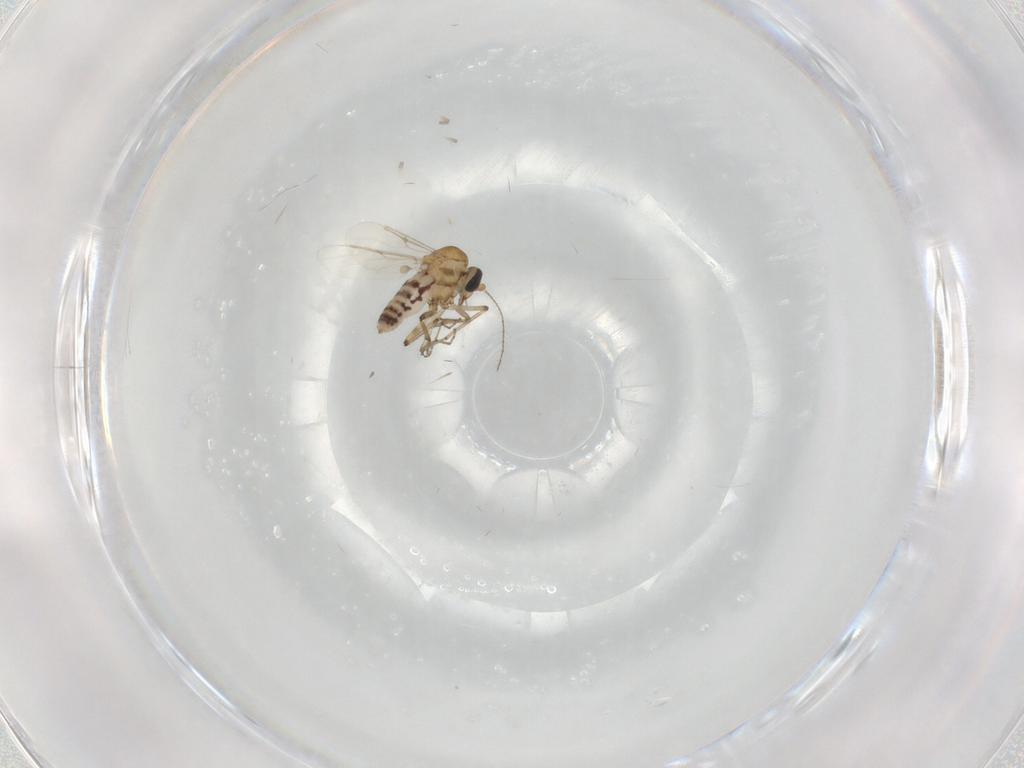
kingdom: Animalia
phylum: Arthropoda
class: Insecta
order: Diptera
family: Ceratopogonidae
